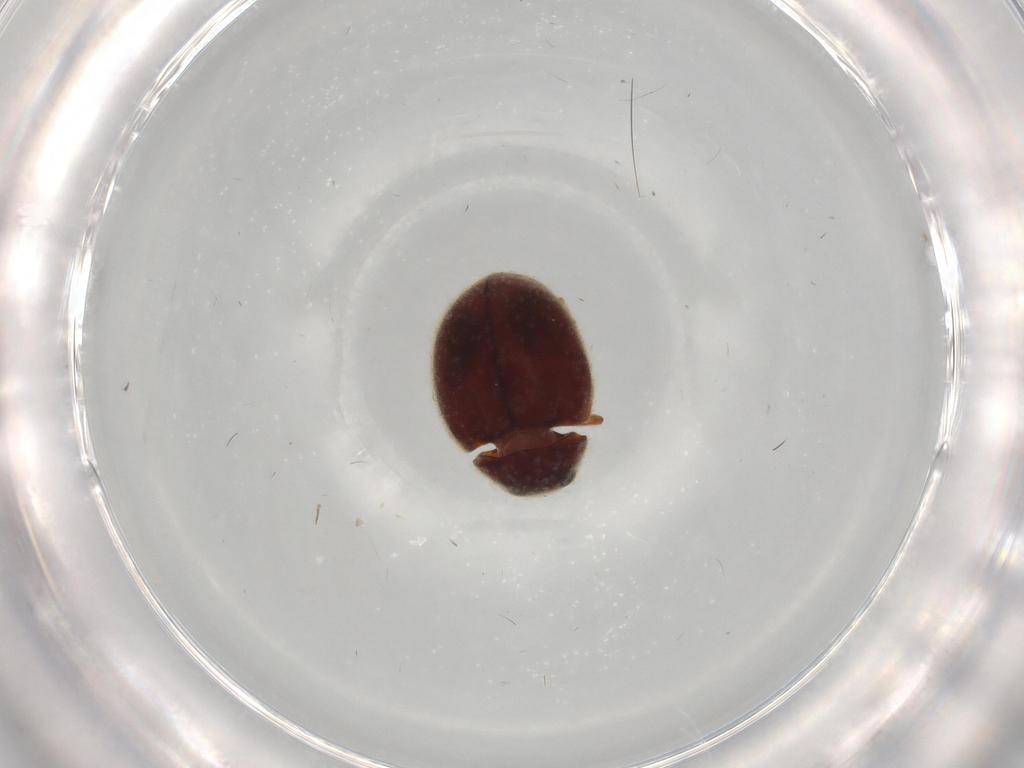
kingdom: Animalia
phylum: Arthropoda
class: Insecta
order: Coleoptera
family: Coccinellidae
